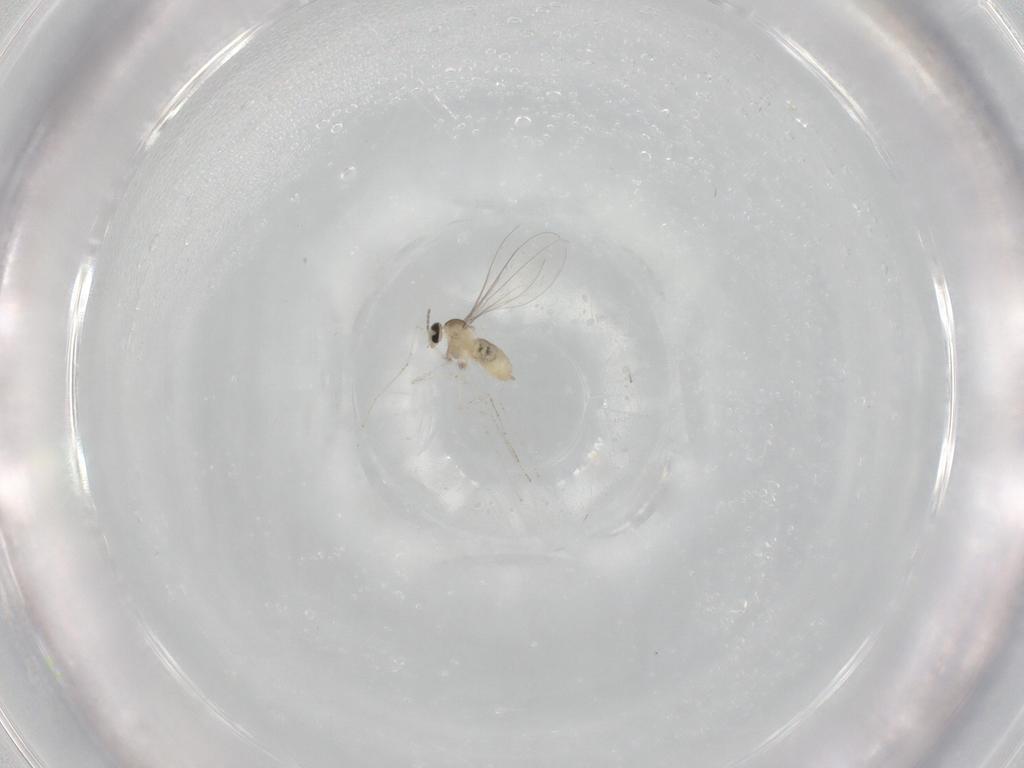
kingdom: Animalia
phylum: Arthropoda
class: Insecta
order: Diptera
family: Cecidomyiidae
